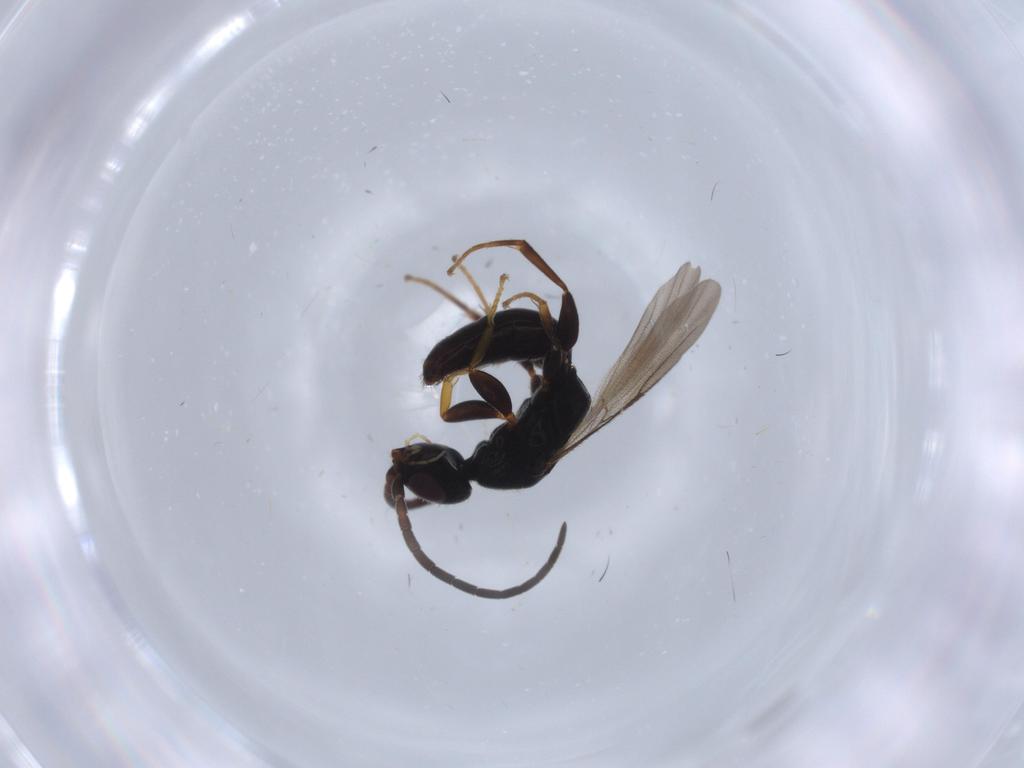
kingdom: Animalia
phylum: Arthropoda
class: Insecta
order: Hymenoptera
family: Bethylidae
